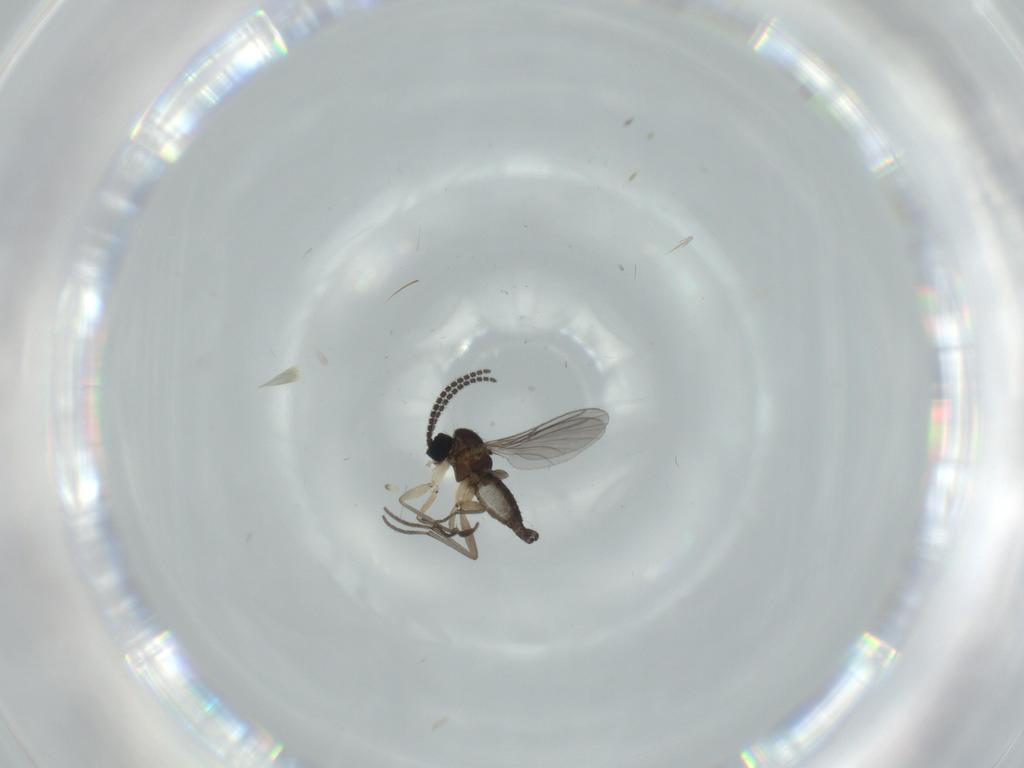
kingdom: Animalia
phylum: Arthropoda
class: Insecta
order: Diptera
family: Sciaridae
